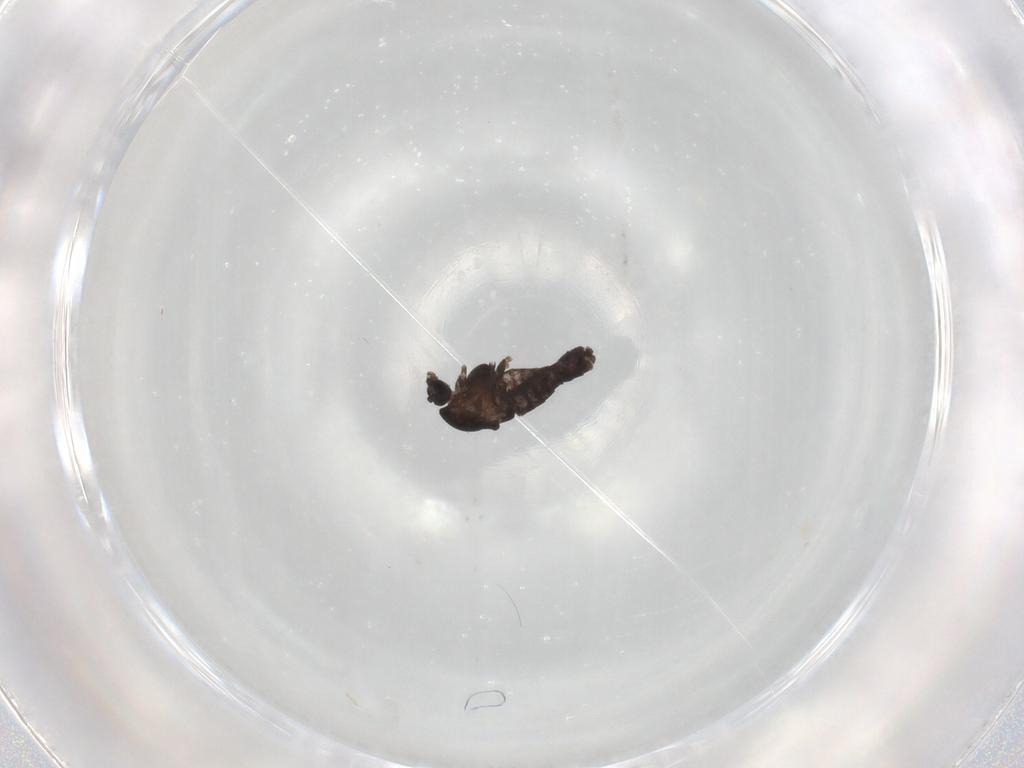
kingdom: Animalia
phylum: Arthropoda
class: Insecta
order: Diptera
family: Chironomidae
